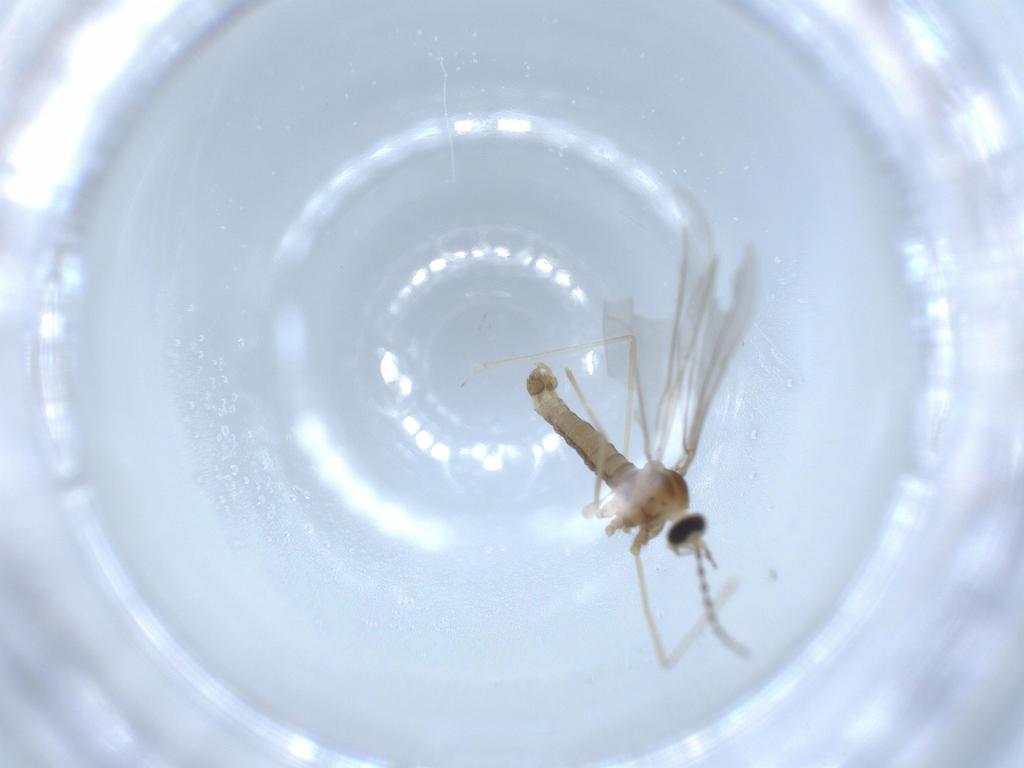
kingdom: Animalia
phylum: Arthropoda
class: Insecta
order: Diptera
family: Cecidomyiidae
